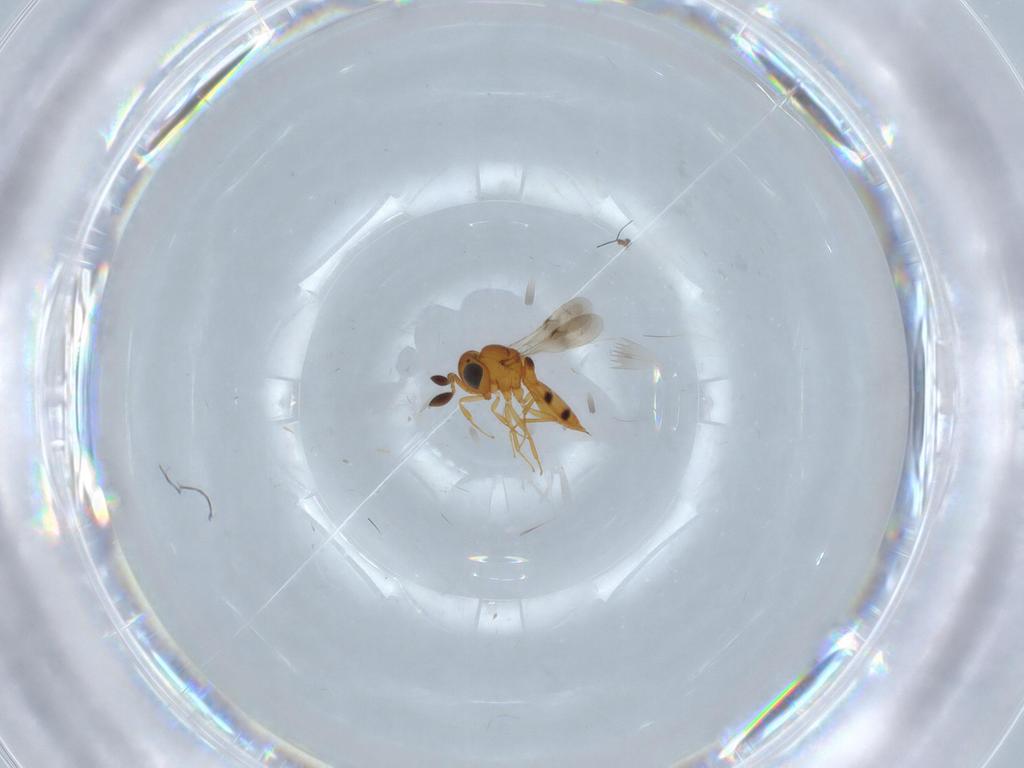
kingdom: Animalia
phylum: Arthropoda
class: Insecta
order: Hymenoptera
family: Scelionidae
